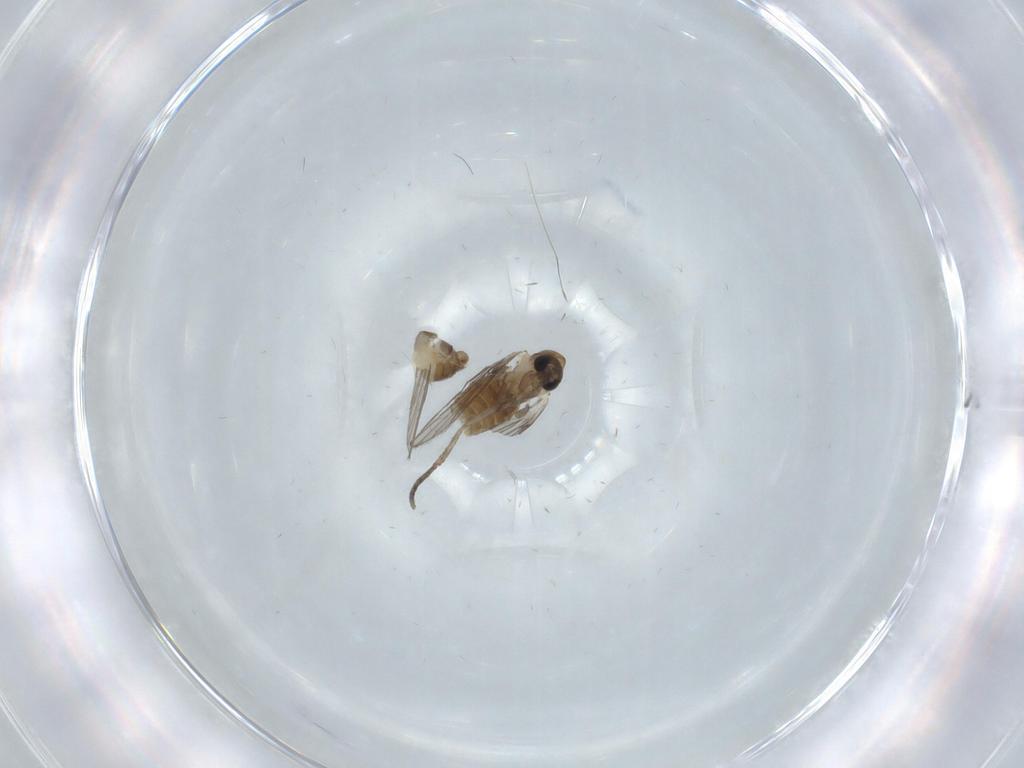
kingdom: Animalia
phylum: Arthropoda
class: Insecta
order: Diptera
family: Psychodidae
